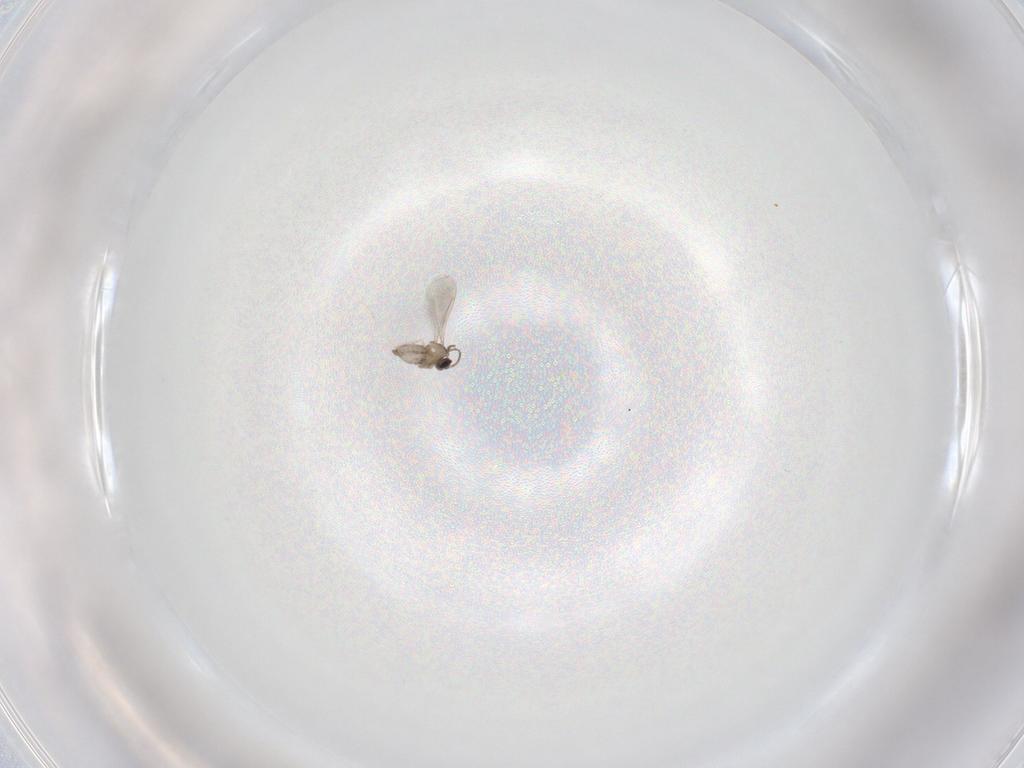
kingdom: Animalia
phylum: Arthropoda
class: Insecta
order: Diptera
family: Cecidomyiidae
